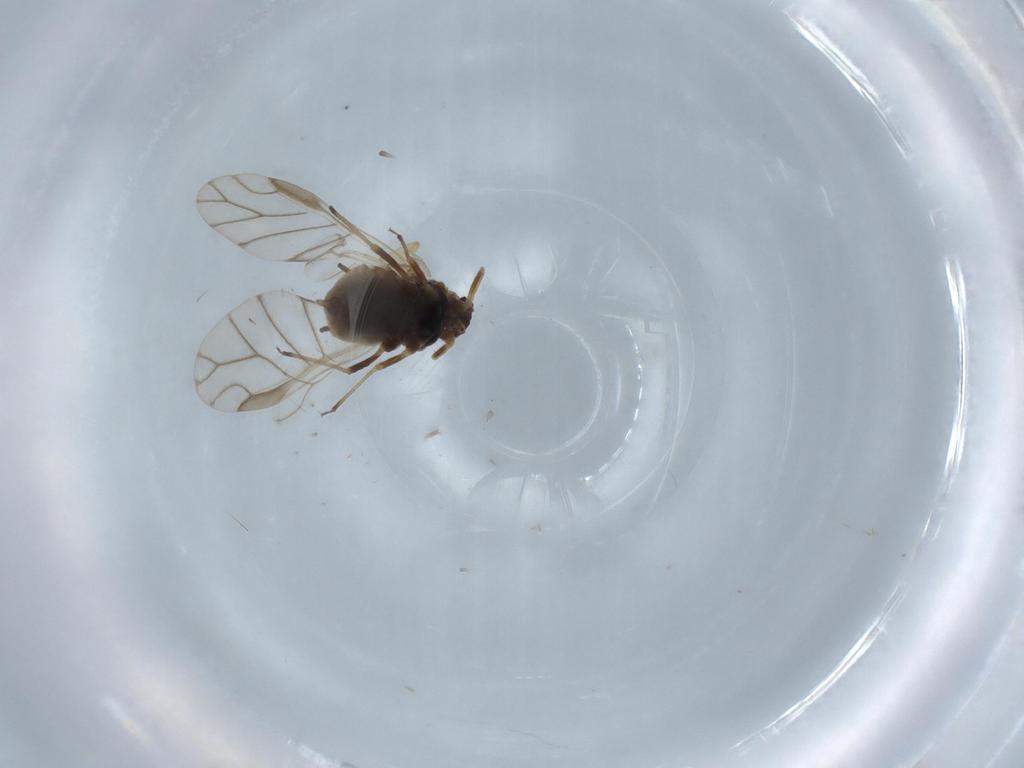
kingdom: Animalia
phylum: Arthropoda
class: Insecta
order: Hemiptera
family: Aphididae
